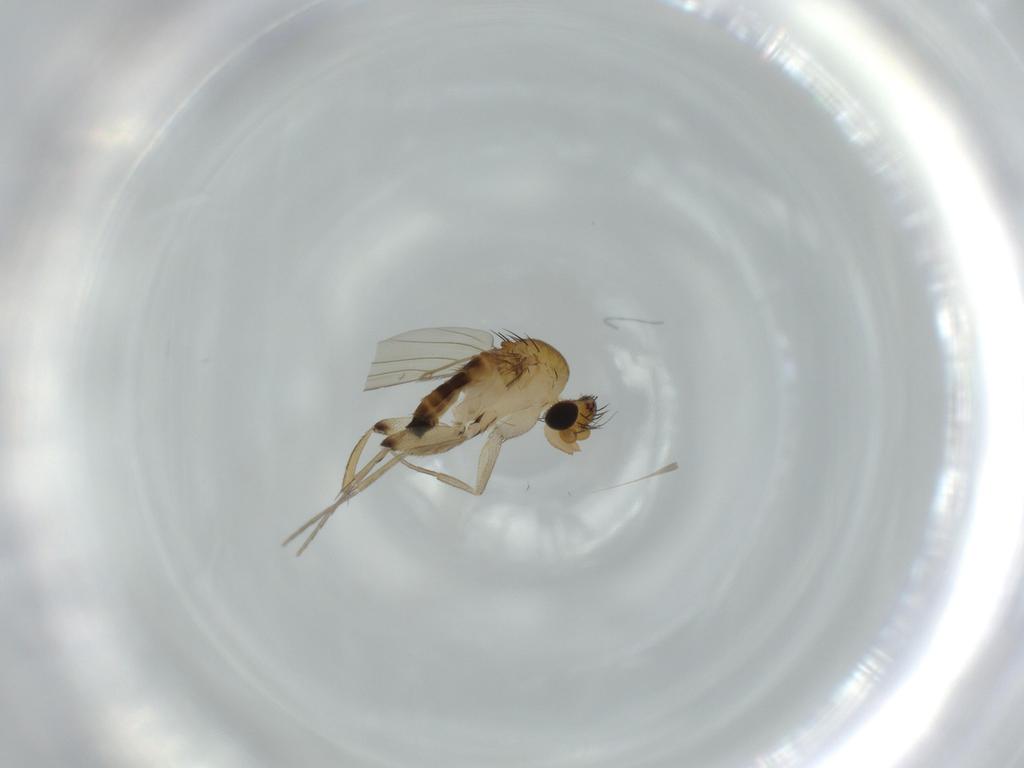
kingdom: Animalia
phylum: Arthropoda
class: Insecta
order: Diptera
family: Phoridae
